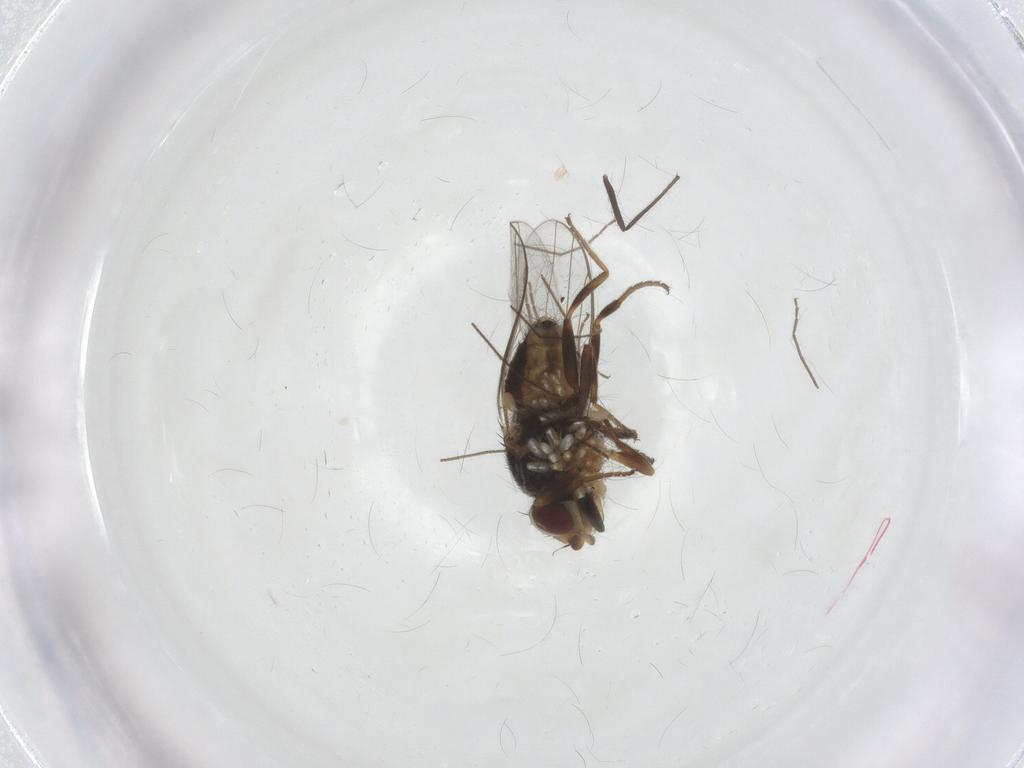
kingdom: Animalia
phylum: Arthropoda
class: Insecta
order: Diptera
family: Chloropidae
